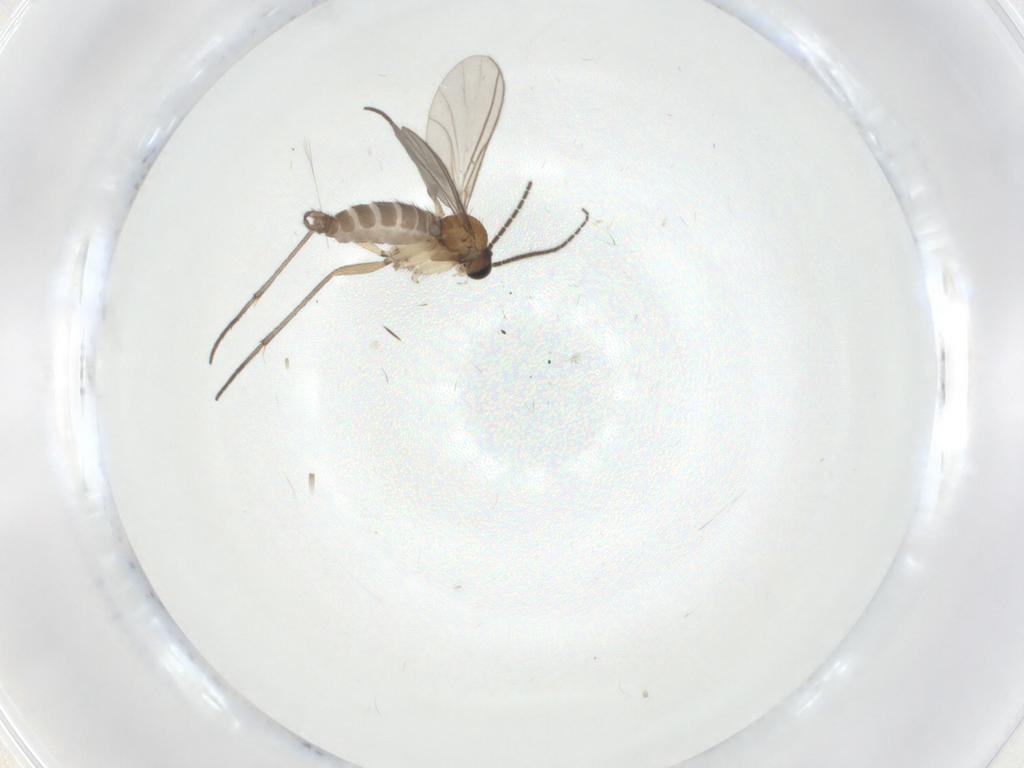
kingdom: Animalia
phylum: Arthropoda
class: Insecta
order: Diptera
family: Sciaridae
